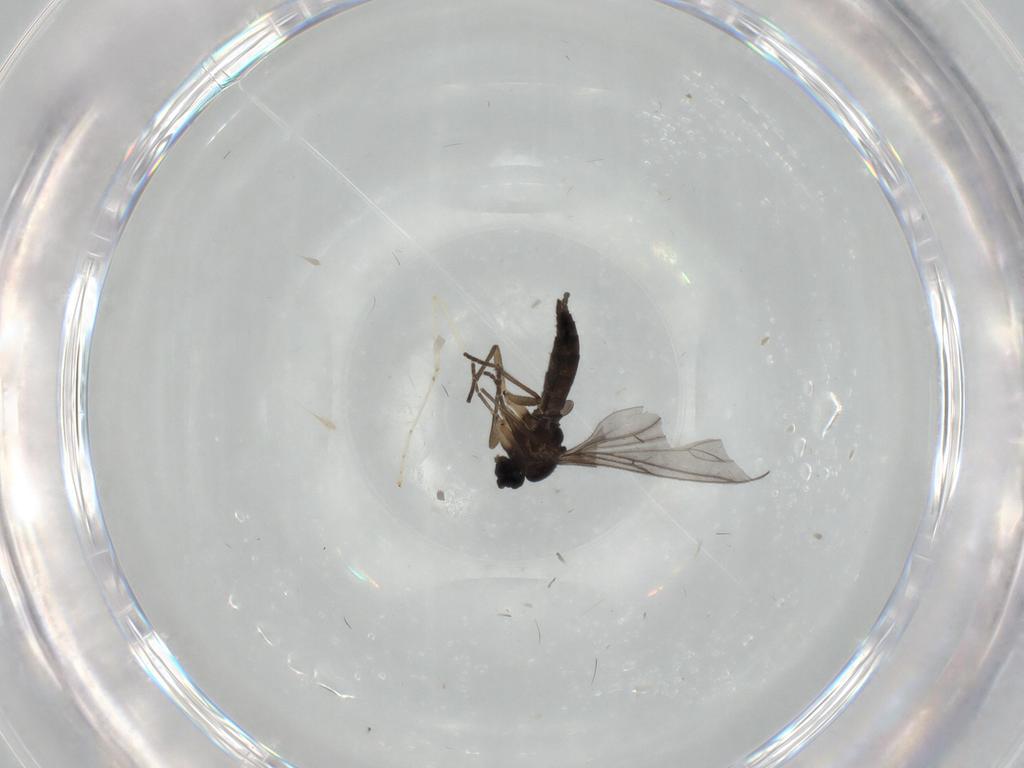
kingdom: Animalia
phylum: Arthropoda
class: Insecta
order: Diptera
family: Sciaridae
